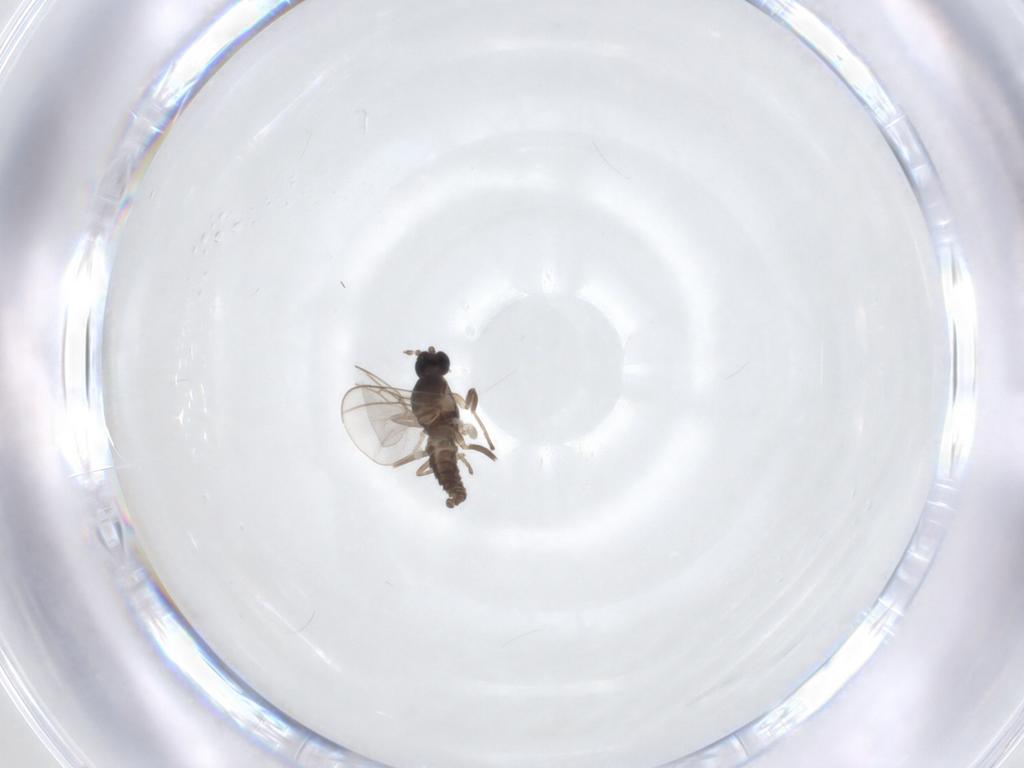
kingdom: Animalia
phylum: Arthropoda
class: Insecta
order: Diptera
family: Cecidomyiidae
